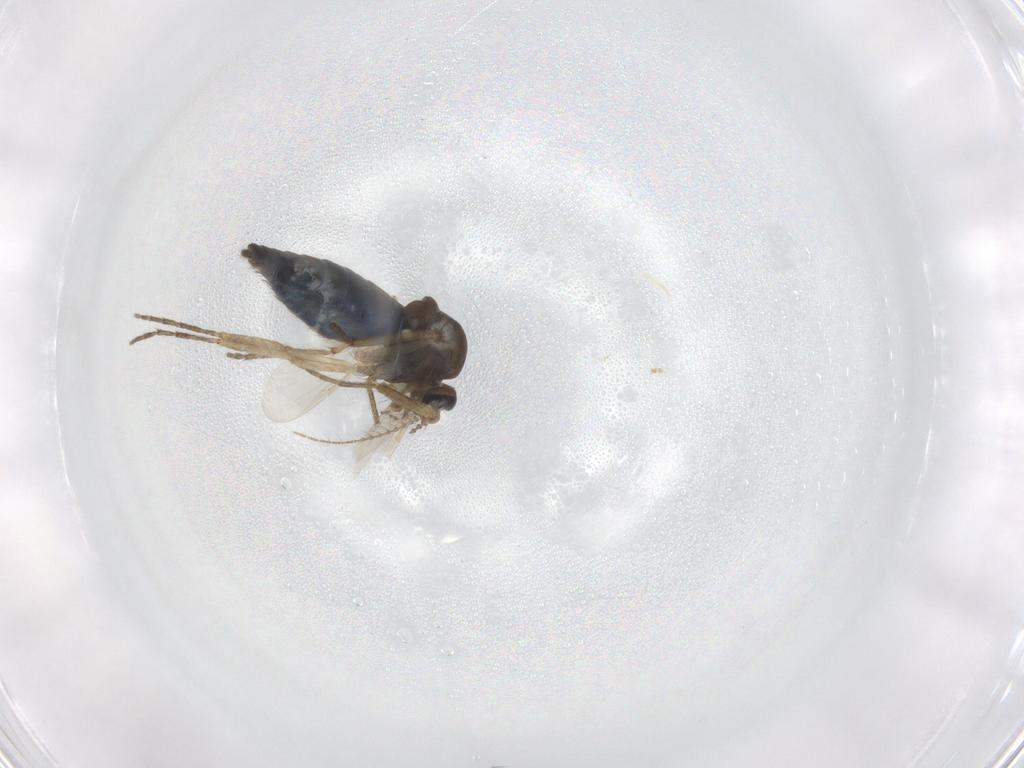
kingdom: Animalia
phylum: Arthropoda
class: Insecta
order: Diptera
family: Ceratopogonidae
